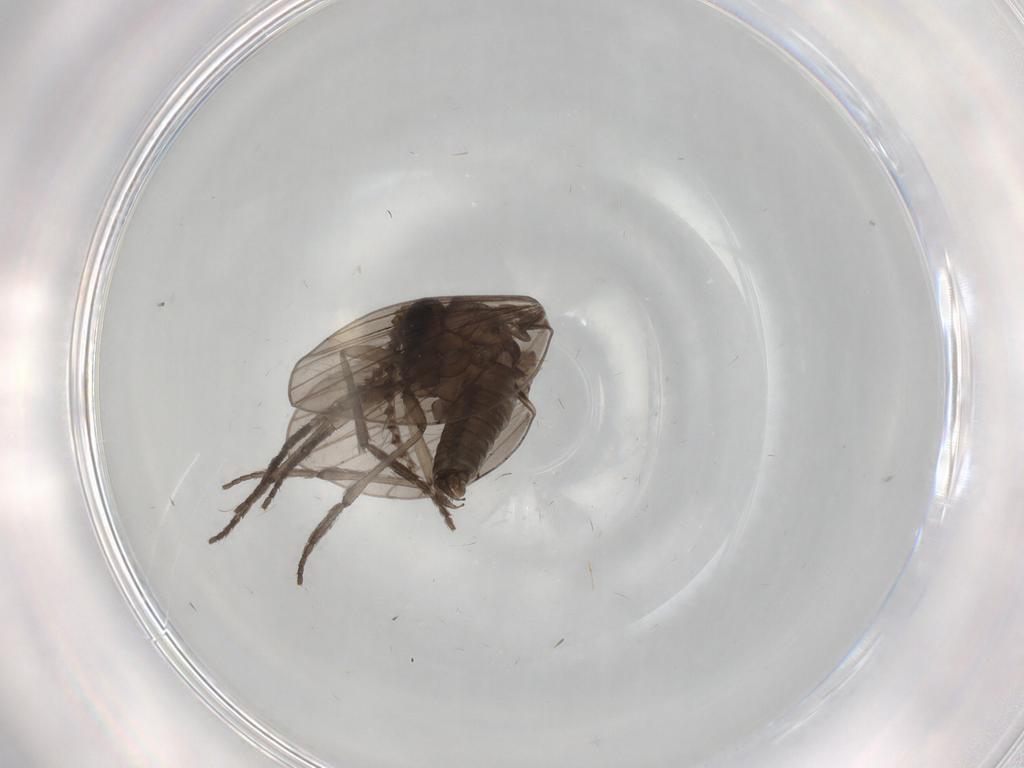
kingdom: Animalia
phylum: Arthropoda
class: Insecta
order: Diptera
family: Psychodidae
